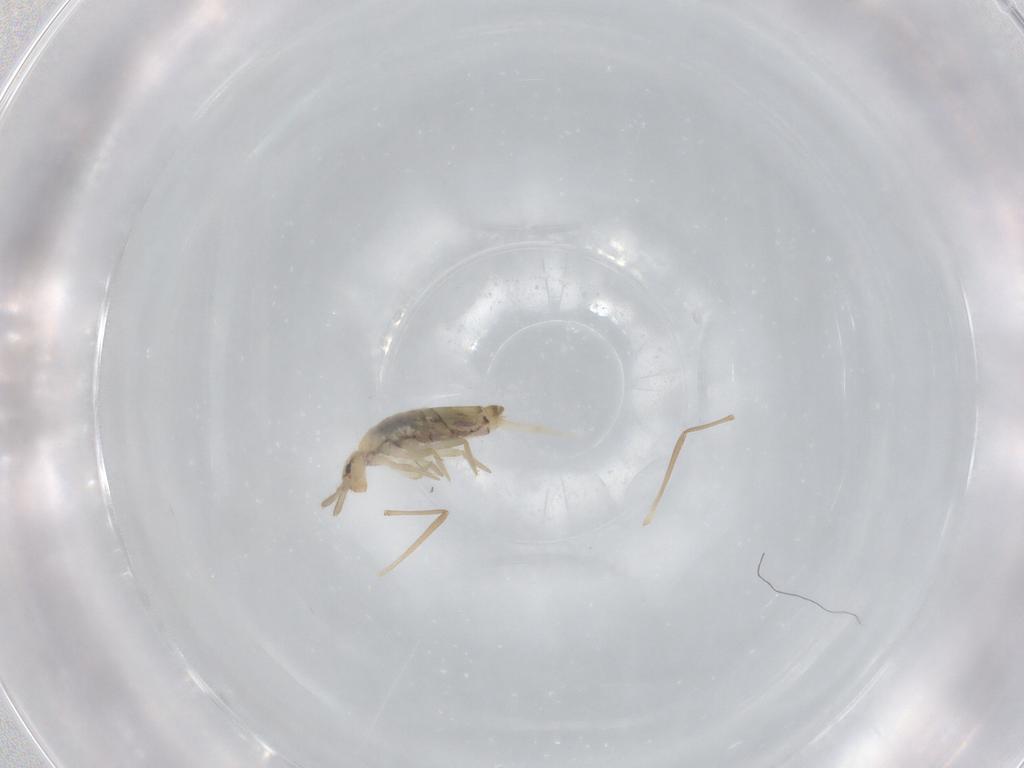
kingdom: Animalia
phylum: Arthropoda
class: Collembola
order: Entomobryomorpha
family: Entomobryidae
